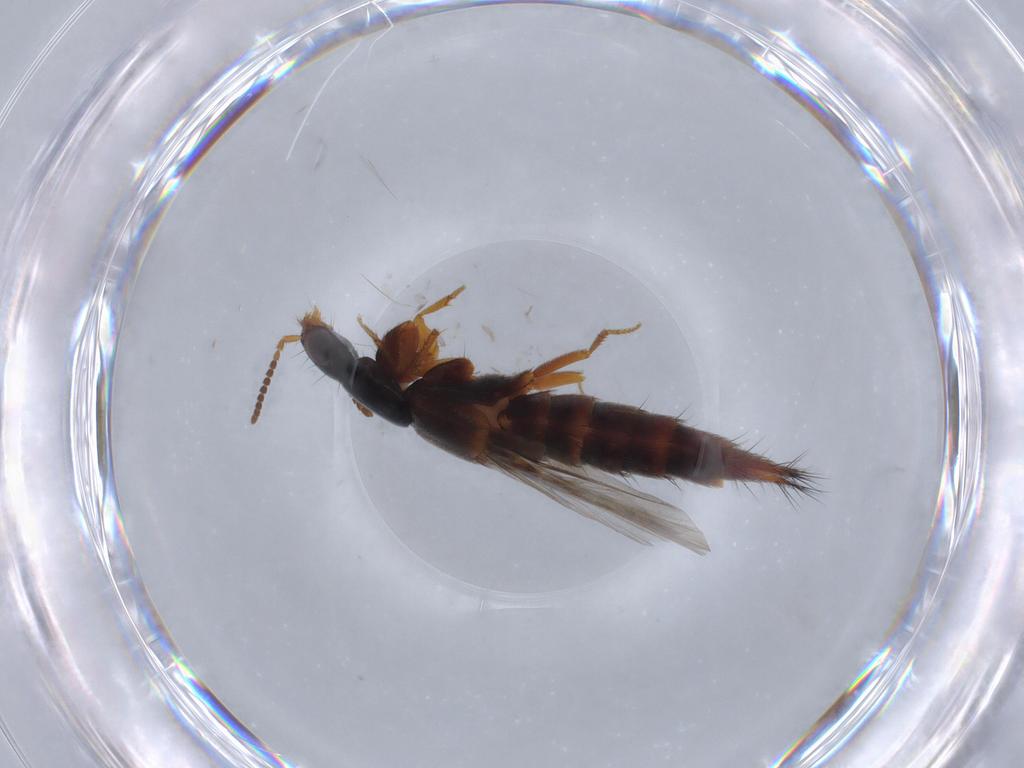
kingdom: Animalia
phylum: Arthropoda
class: Insecta
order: Coleoptera
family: Staphylinidae
